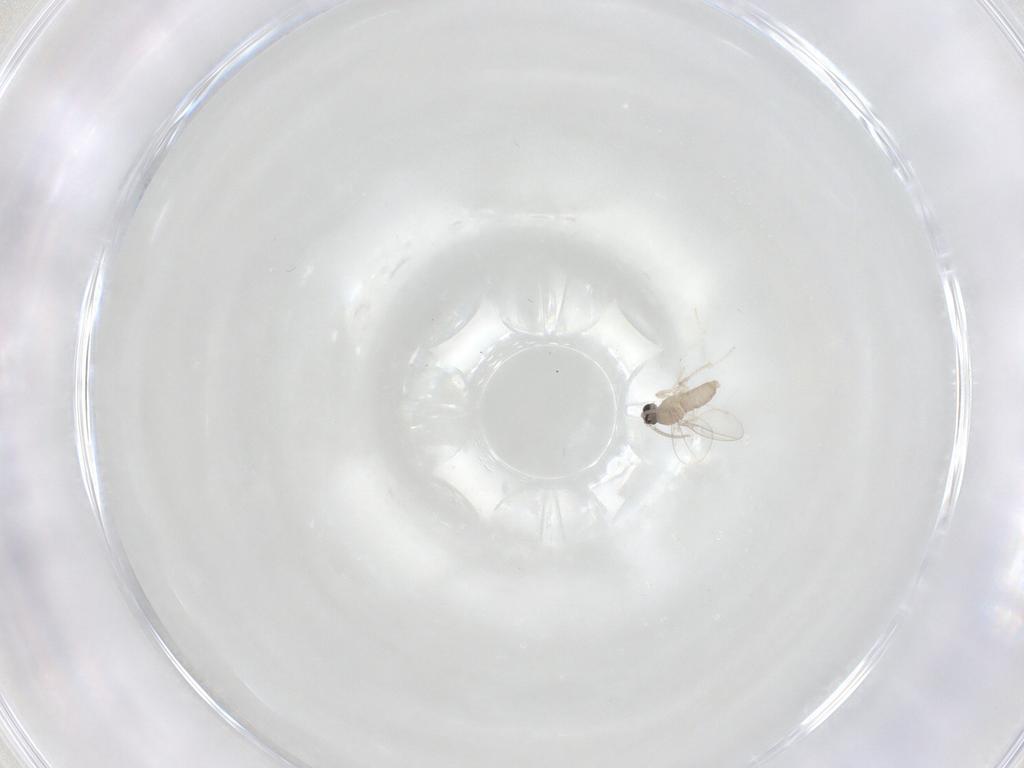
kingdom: Animalia
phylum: Arthropoda
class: Insecta
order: Diptera
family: Cecidomyiidae
